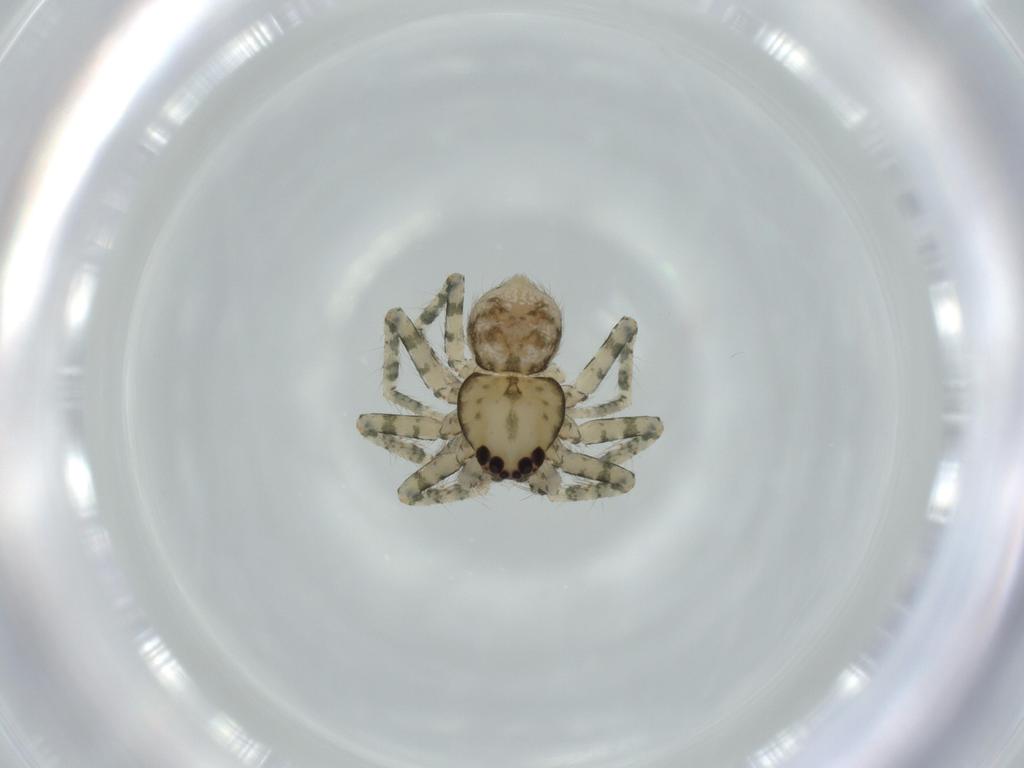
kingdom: Animalia
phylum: Arthropoda
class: Arachnida
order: Araneae
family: Selenopidae
